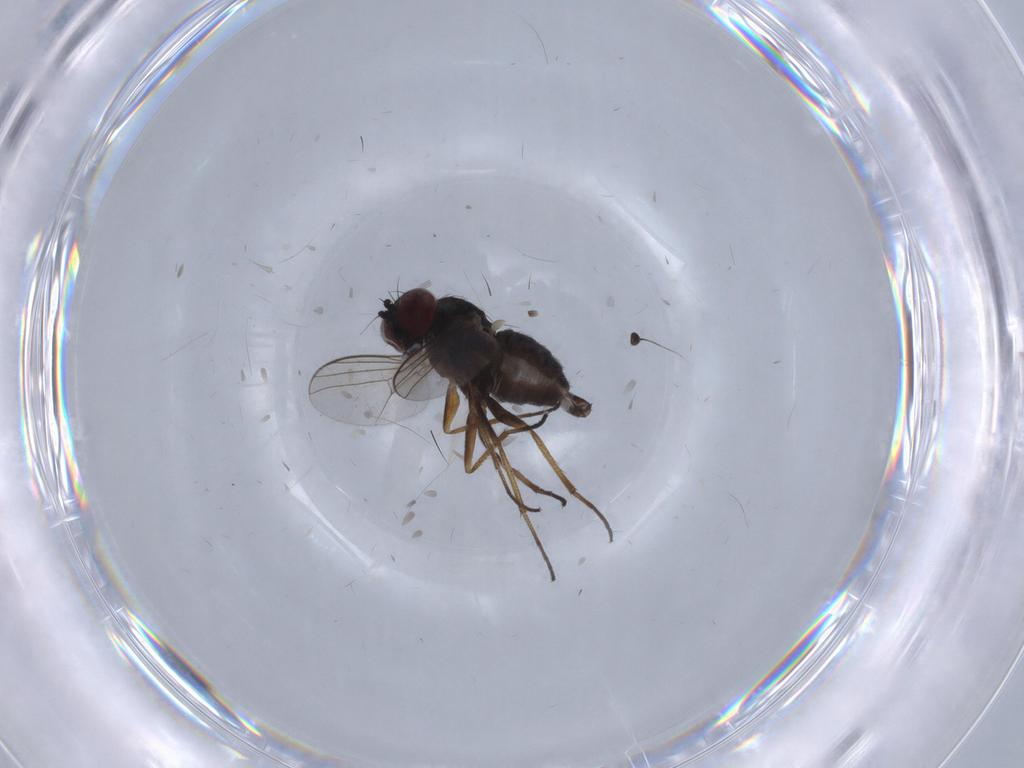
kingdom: Animalia
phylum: Arthropoda
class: Insecta
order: Diptera
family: Dolichopodidae
